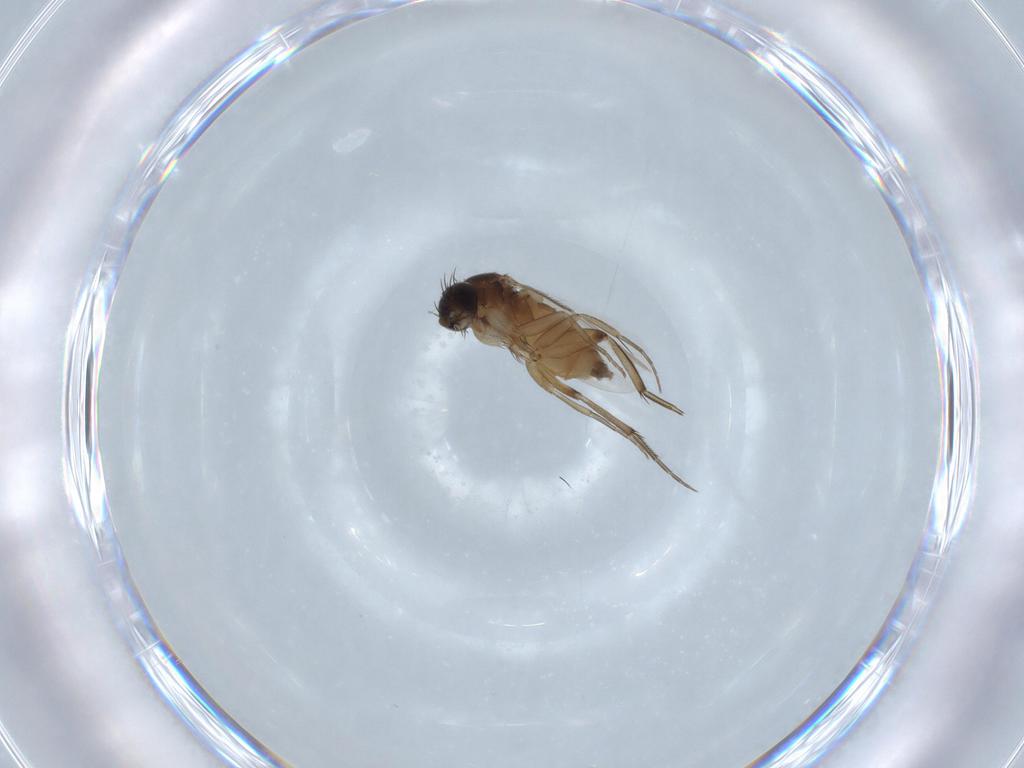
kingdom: Animalia
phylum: Arthropoda
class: Insecta
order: Diptera
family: Phoridae
